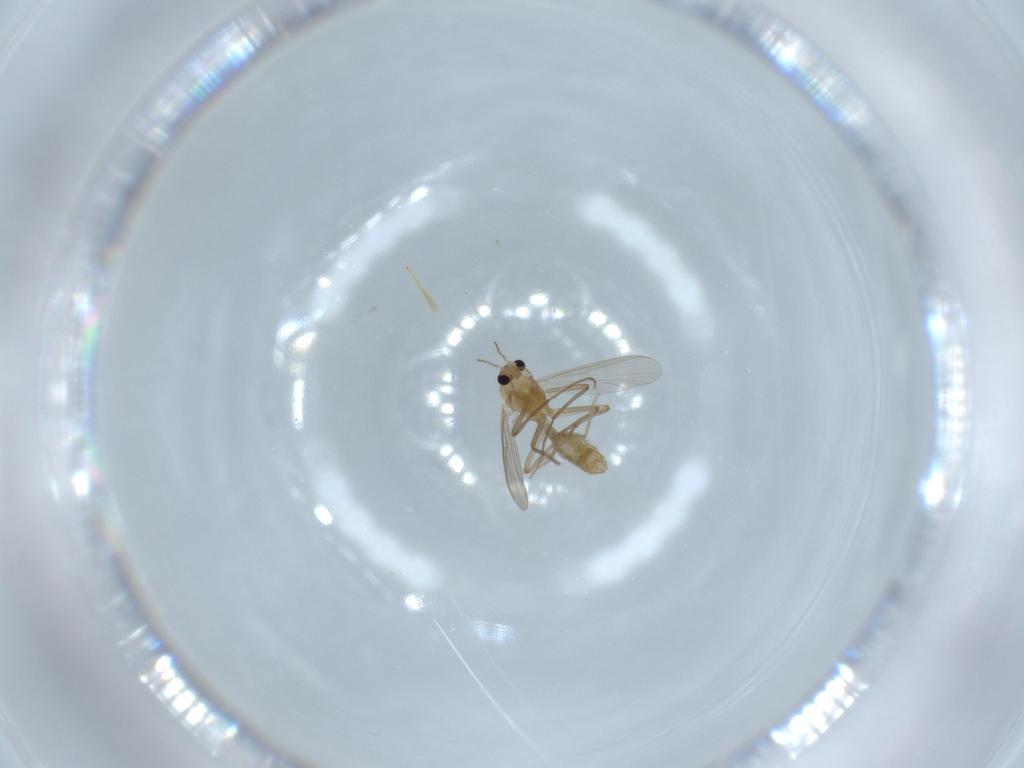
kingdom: Animalia
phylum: Arthropoda
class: Insecta
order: Diptera
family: Chironomidae
